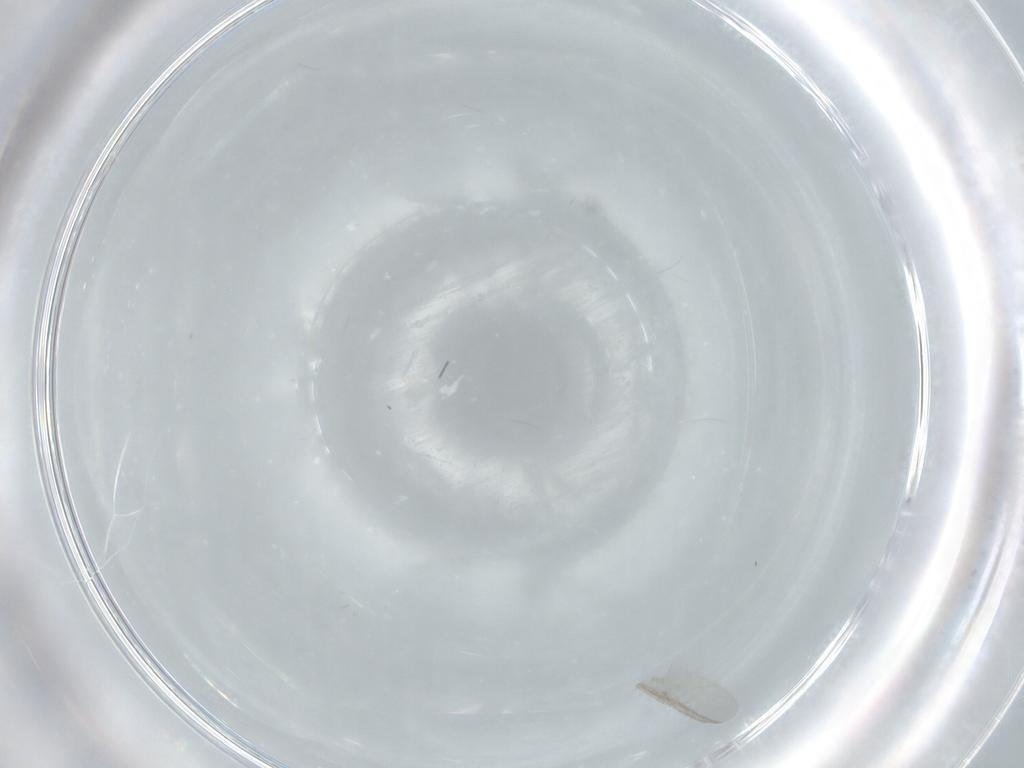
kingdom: Animalia
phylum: Arthropoda
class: Insecta
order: Diptera
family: Chironomidae
